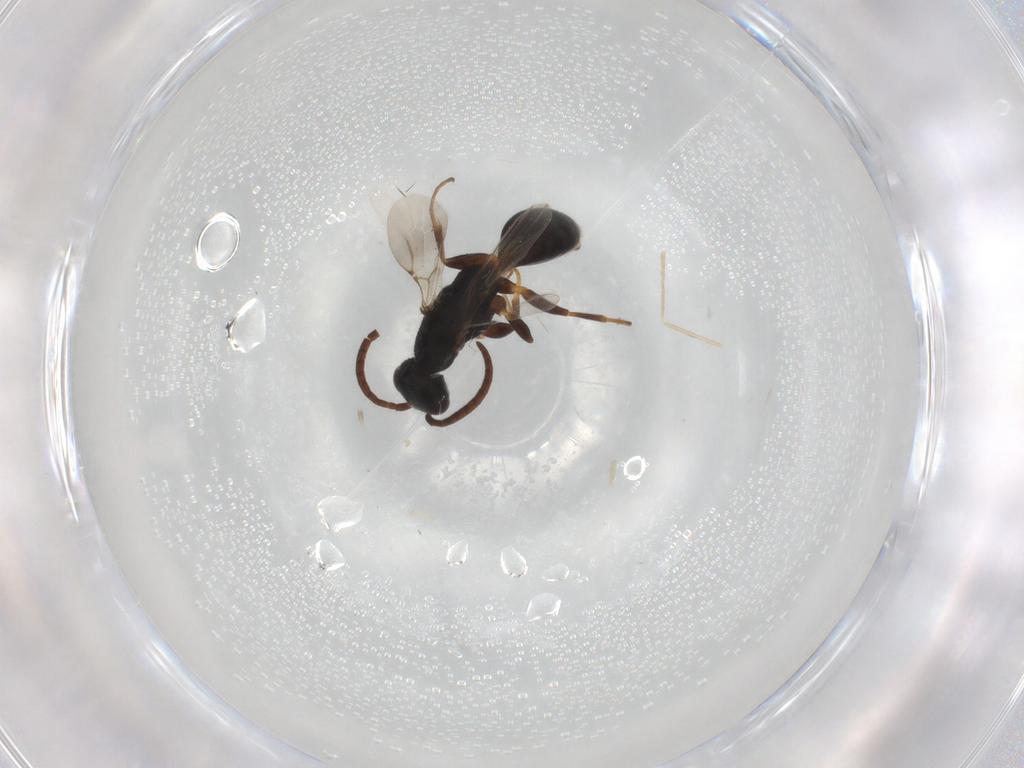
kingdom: Animalia
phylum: Arthropoda
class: Insecta
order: Hymenoptera
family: Bethylidae
